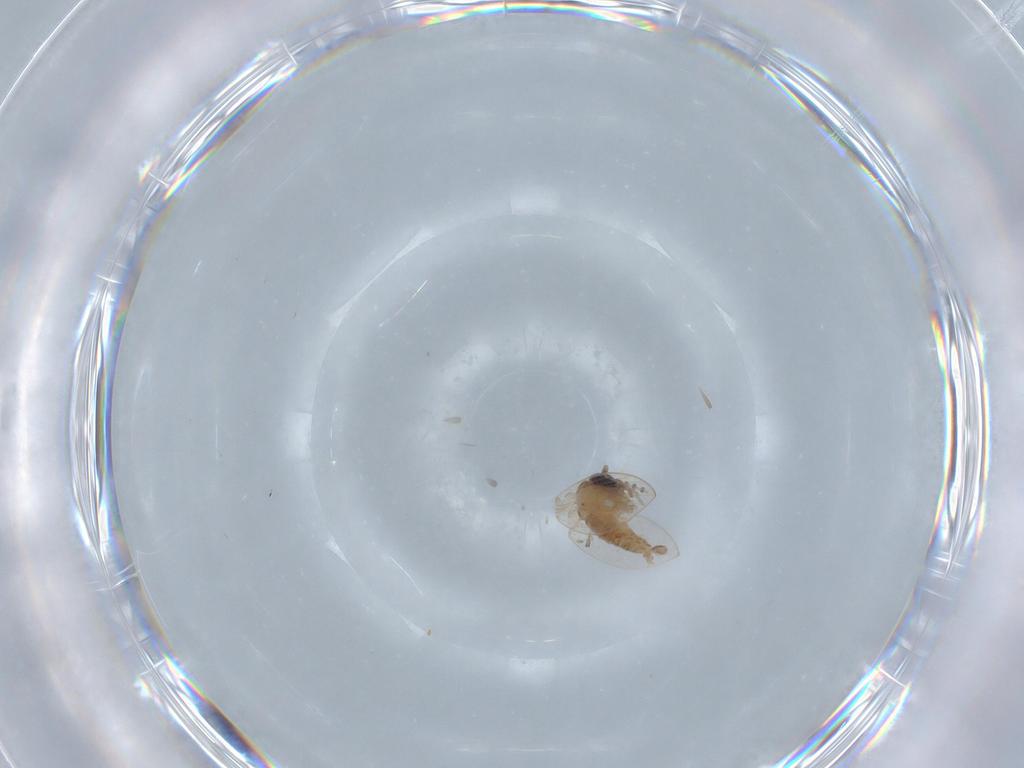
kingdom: Animalia
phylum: Arthropoda
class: Insecta
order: Diptera
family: Psychodidae
